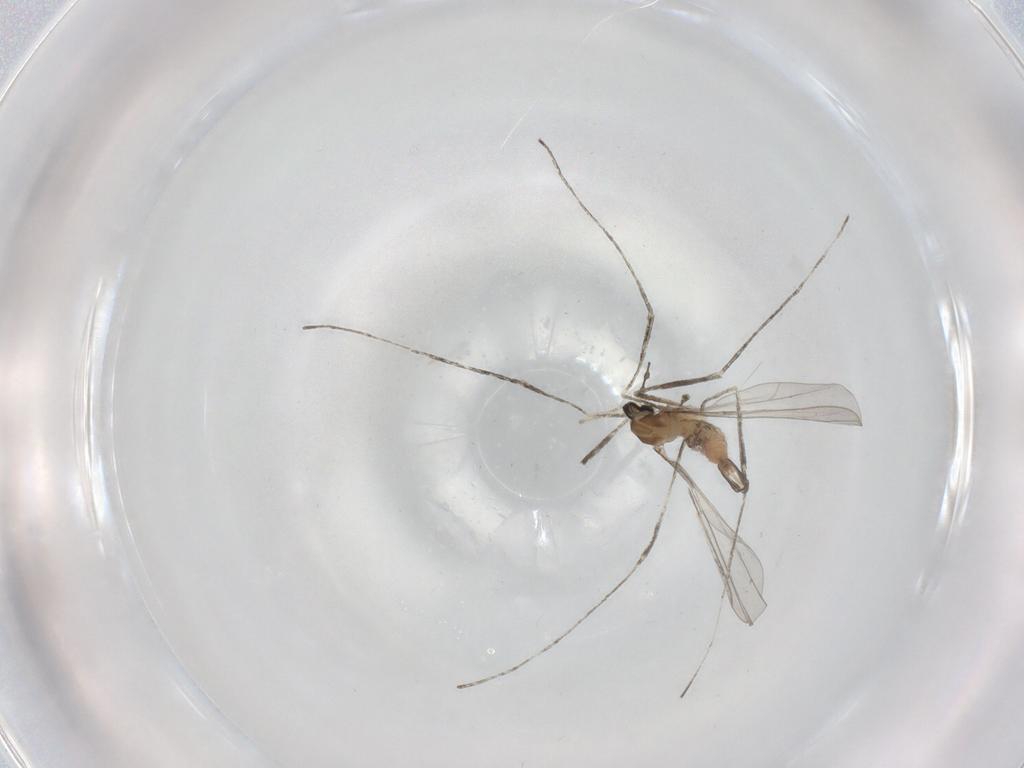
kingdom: Animalia
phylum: Arthropoda
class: Insecta
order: Diptera
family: Cecidomyiidae
